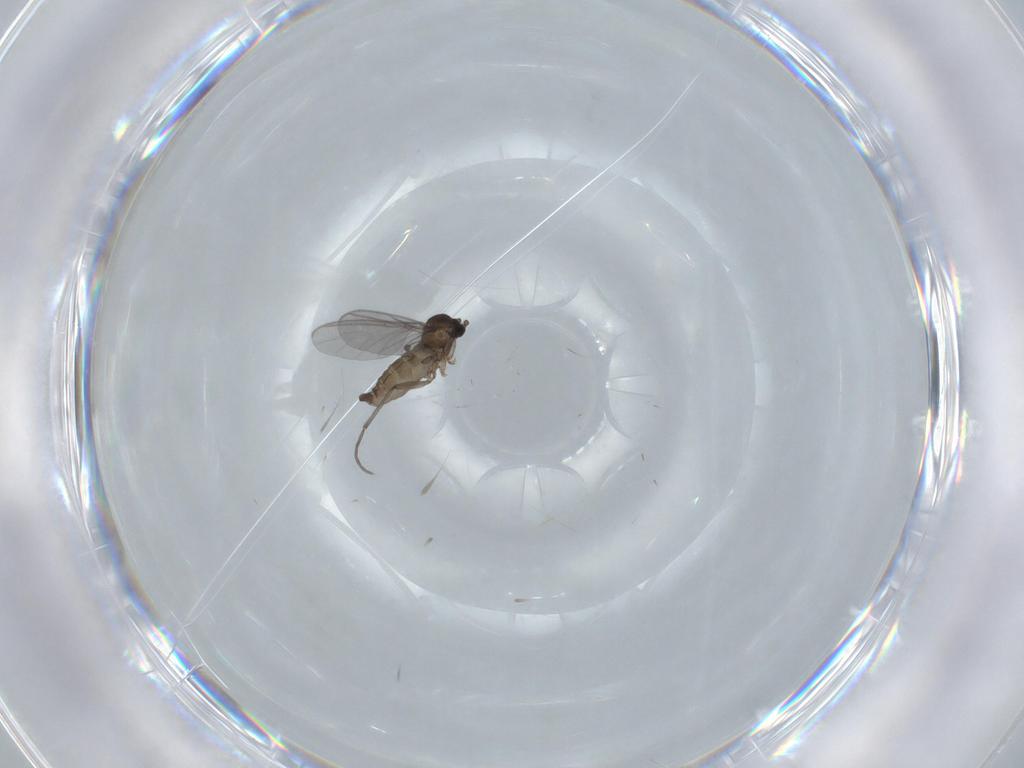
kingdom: Animalia
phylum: Arthropoda
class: Insecta
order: Diptera
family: Sciaridae
